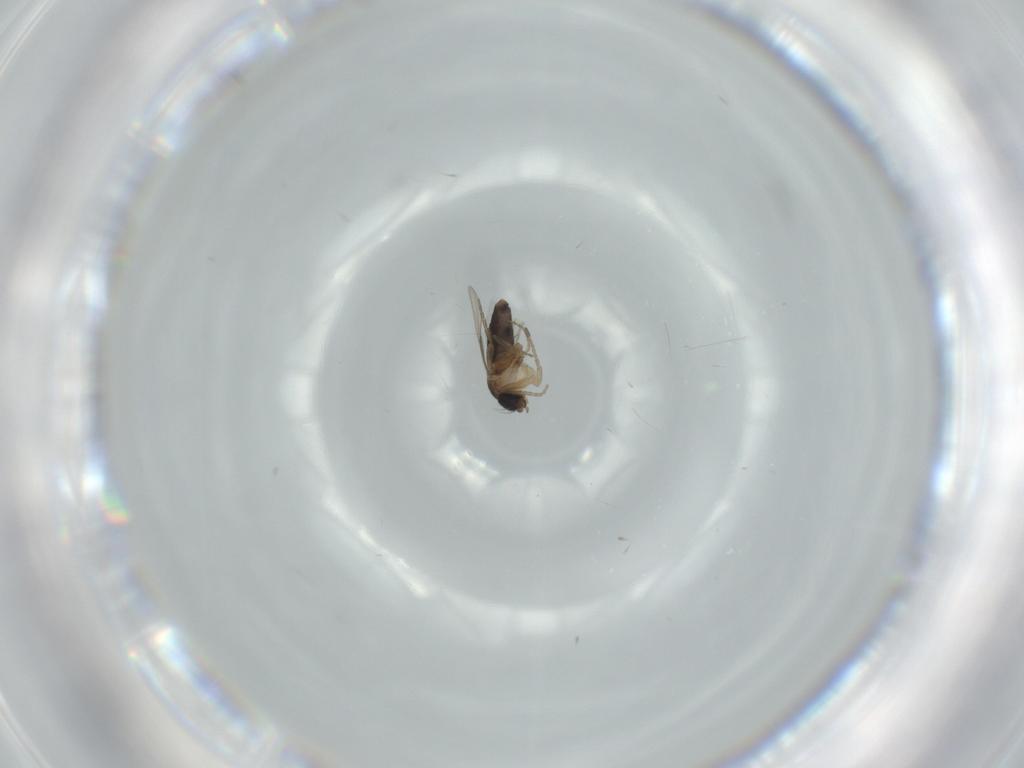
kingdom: Animalia
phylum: Arthropoda
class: Insecta
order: Diptera
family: Phoridae
